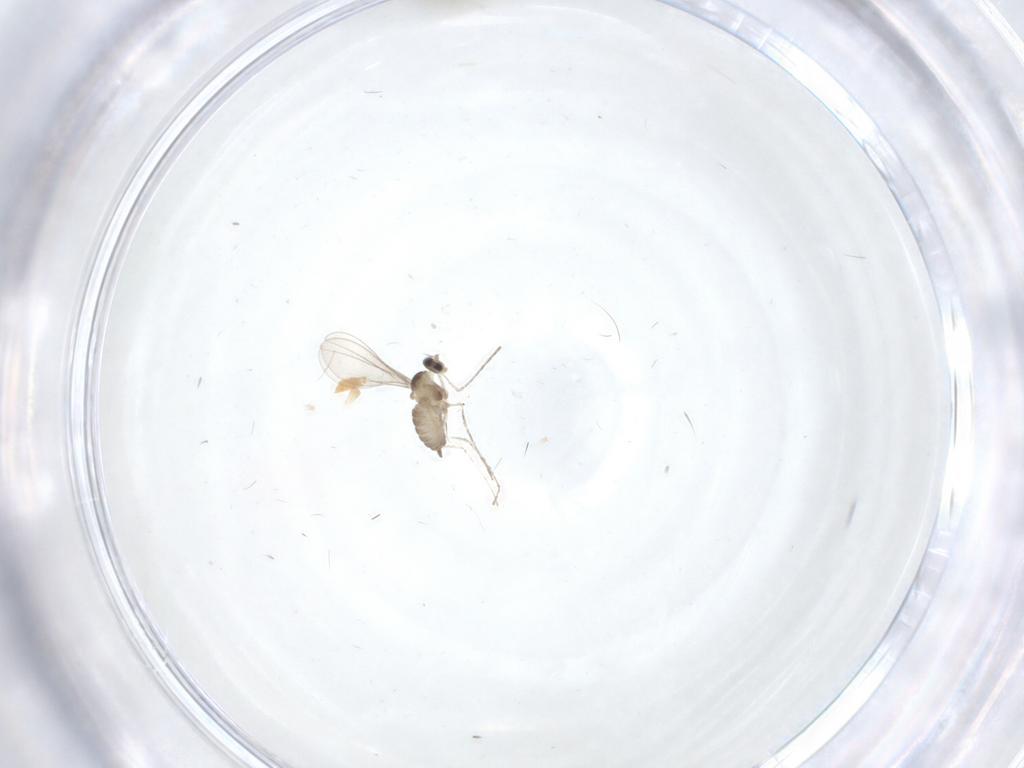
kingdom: Animalia
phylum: Arthropoda
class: Insecta
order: Diptera
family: Cecidomyiidae
